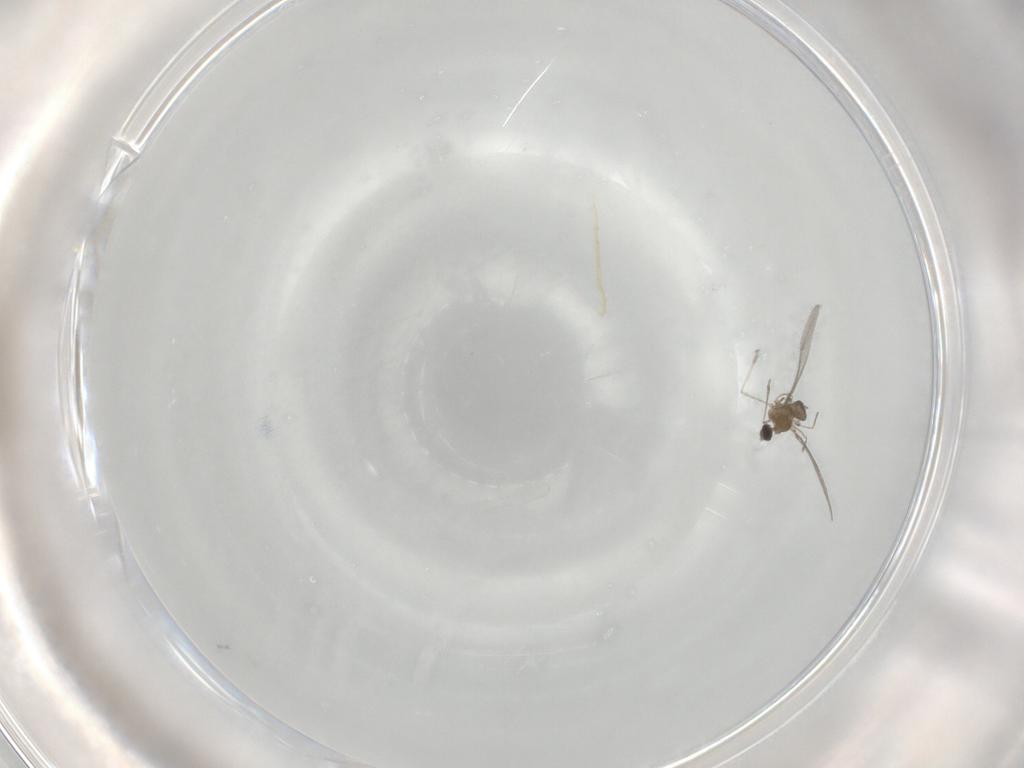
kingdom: Animalia
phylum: Arthropoda
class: Insecta
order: Diptera
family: Cecidomyiidae
